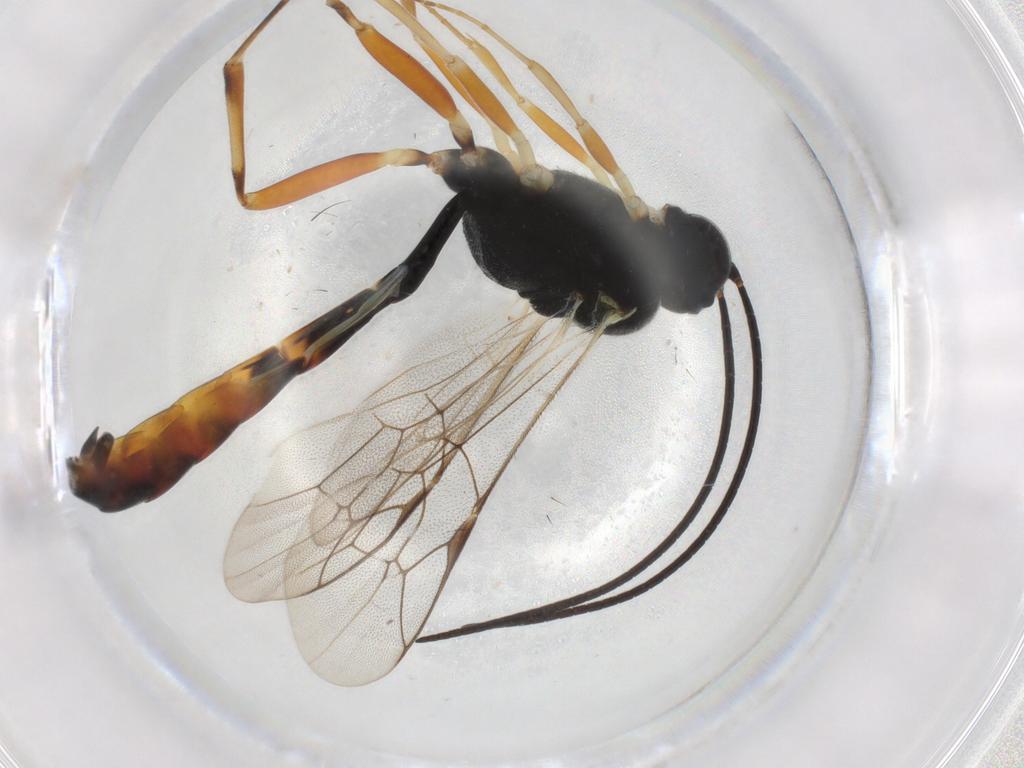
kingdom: Animalia
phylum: Arthropoda
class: Insecta
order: Hymenoptera
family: Ichneumonidae
